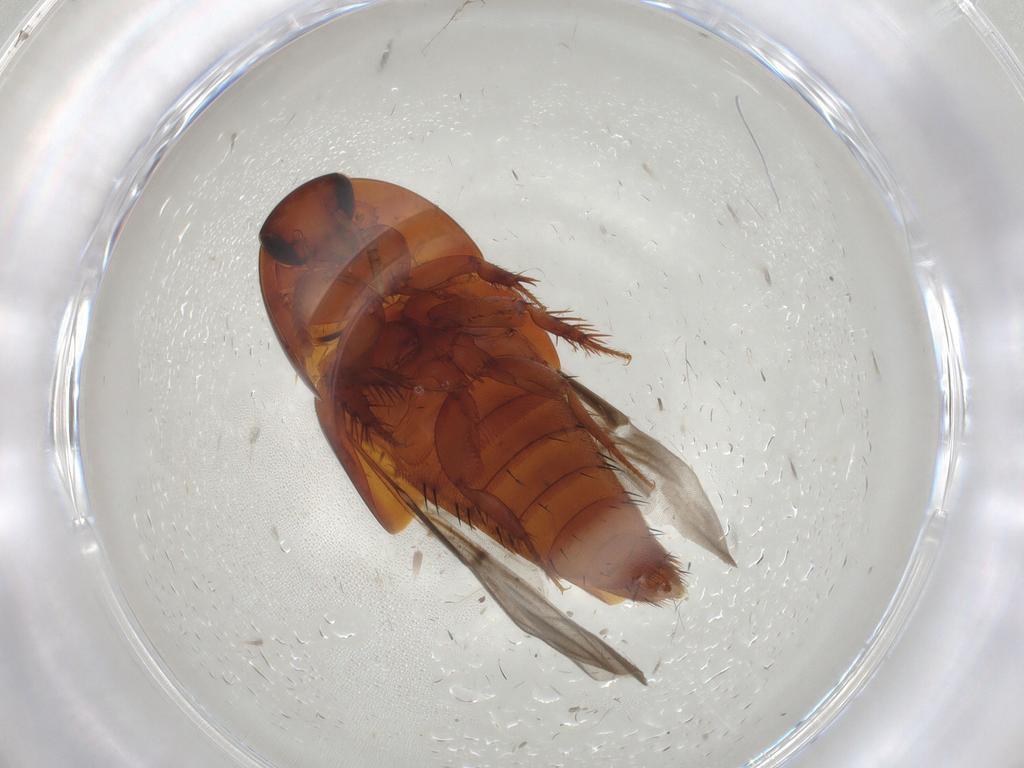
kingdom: Animalia
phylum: Arthropoda
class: Insecta
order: Coleoptera
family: Staphylinidae
